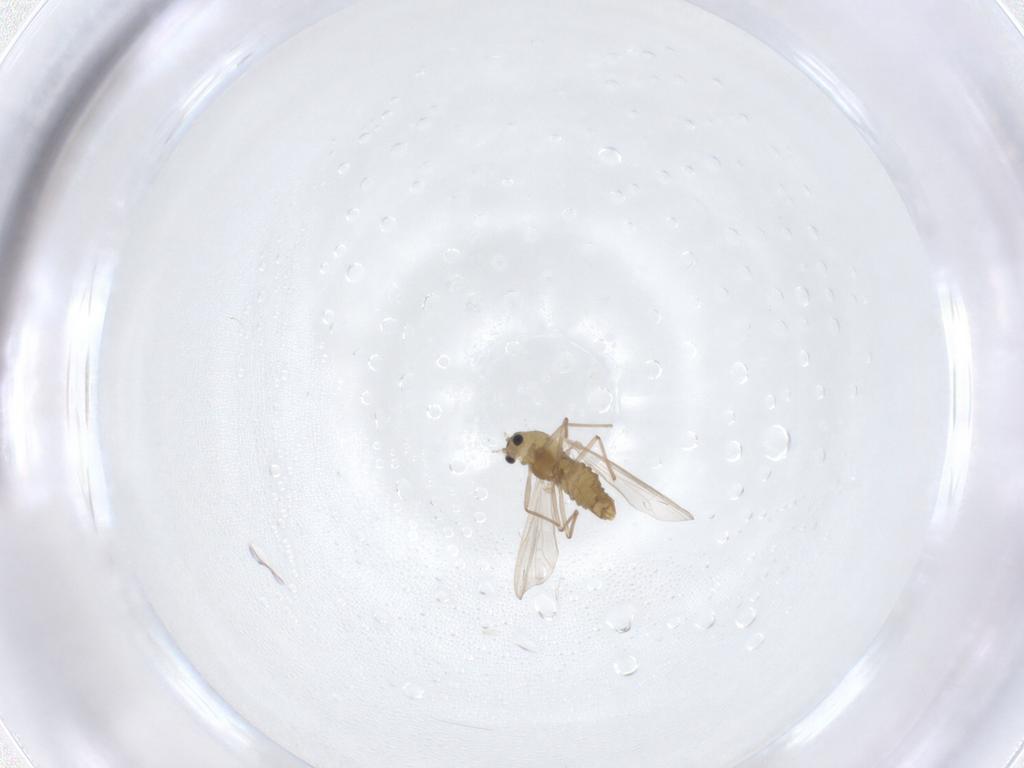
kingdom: Animalia
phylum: Arthropoda
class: Insecta
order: Diptera
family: Chironomidae
